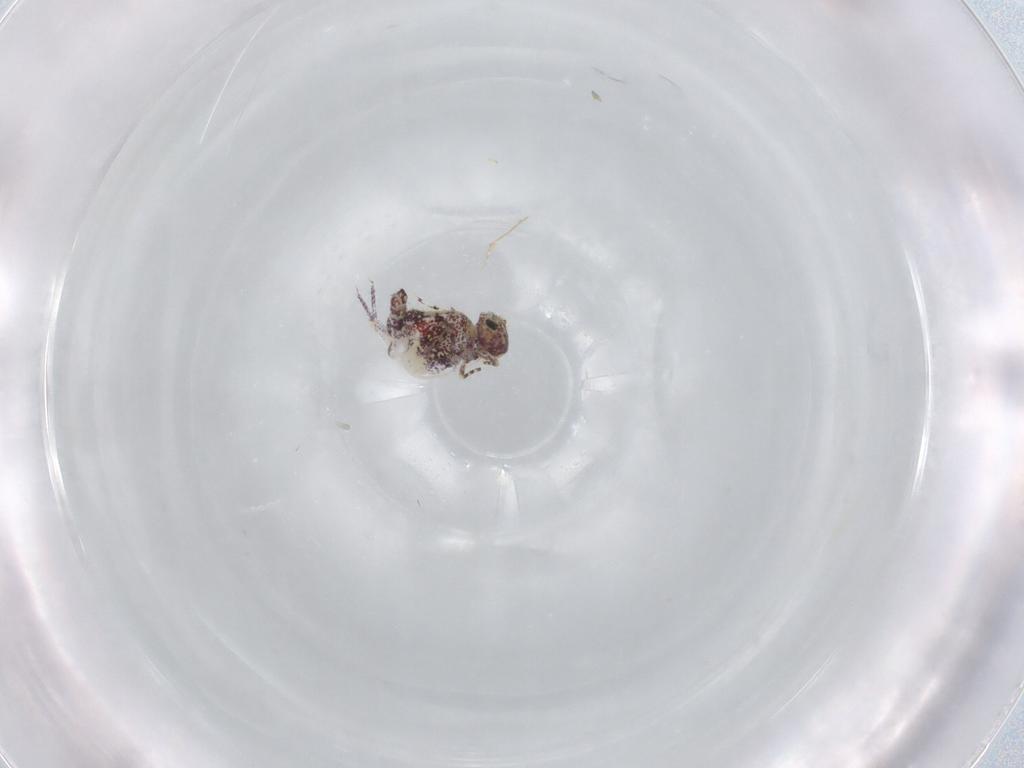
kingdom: Animalia
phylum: Arthropoda
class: Collembola
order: Symphypleona
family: Bourletiellidae
